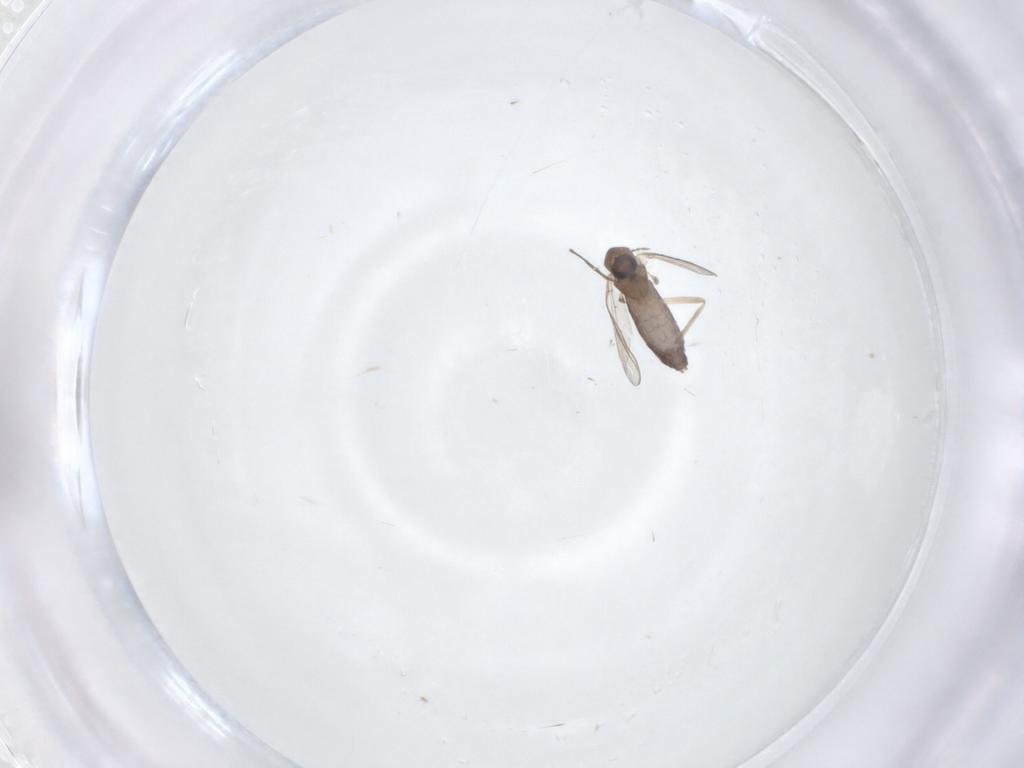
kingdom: Animalia
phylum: Arthropoda
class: Insecta
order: Diptera
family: Chironomidae
